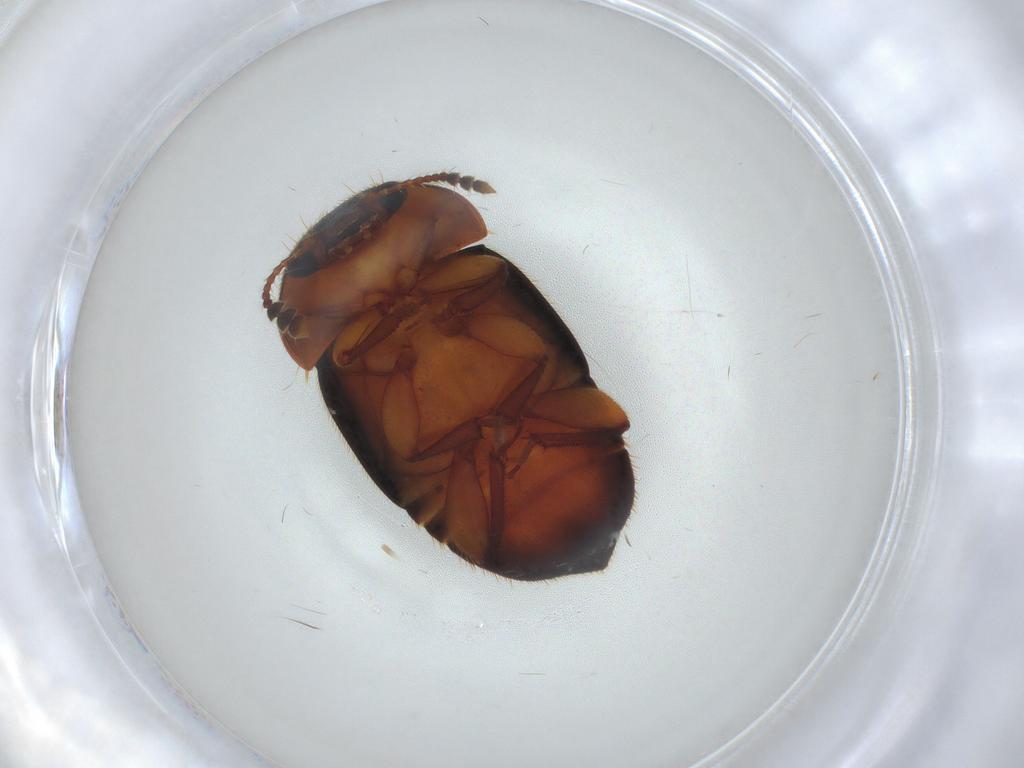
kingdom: Animalia
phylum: Arthropoda
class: Insecta
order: Coleoptera
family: Nitidulidae
